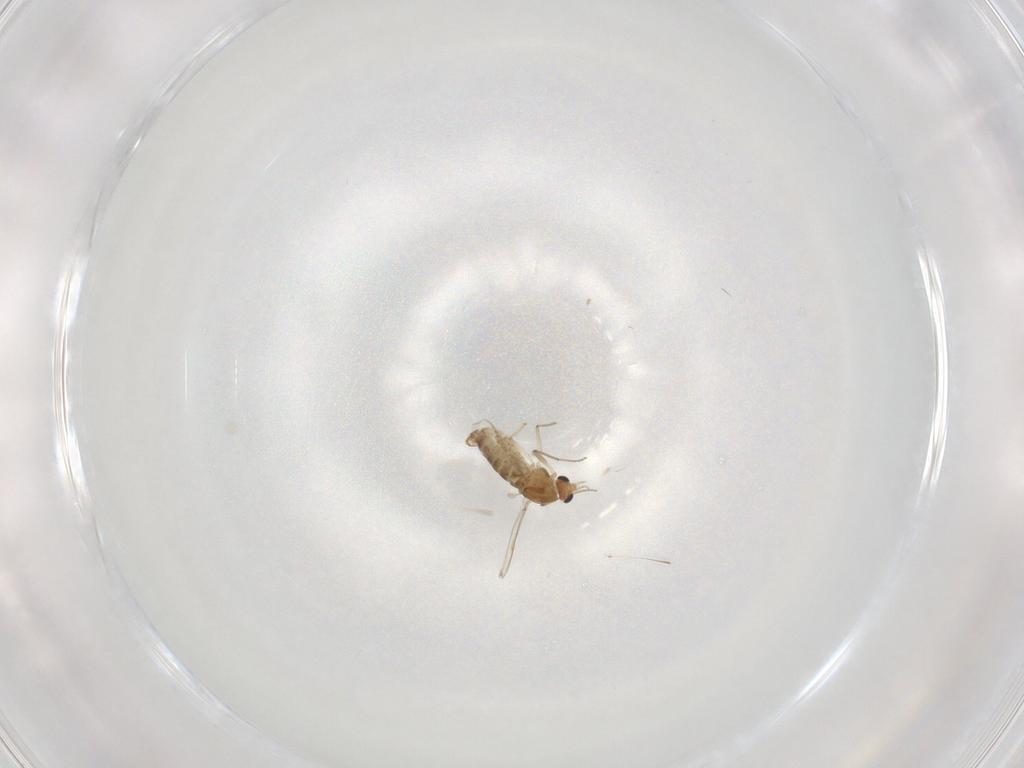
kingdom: Animalia
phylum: Arthropoda
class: Insecta
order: Diptera
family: Chironomidae
